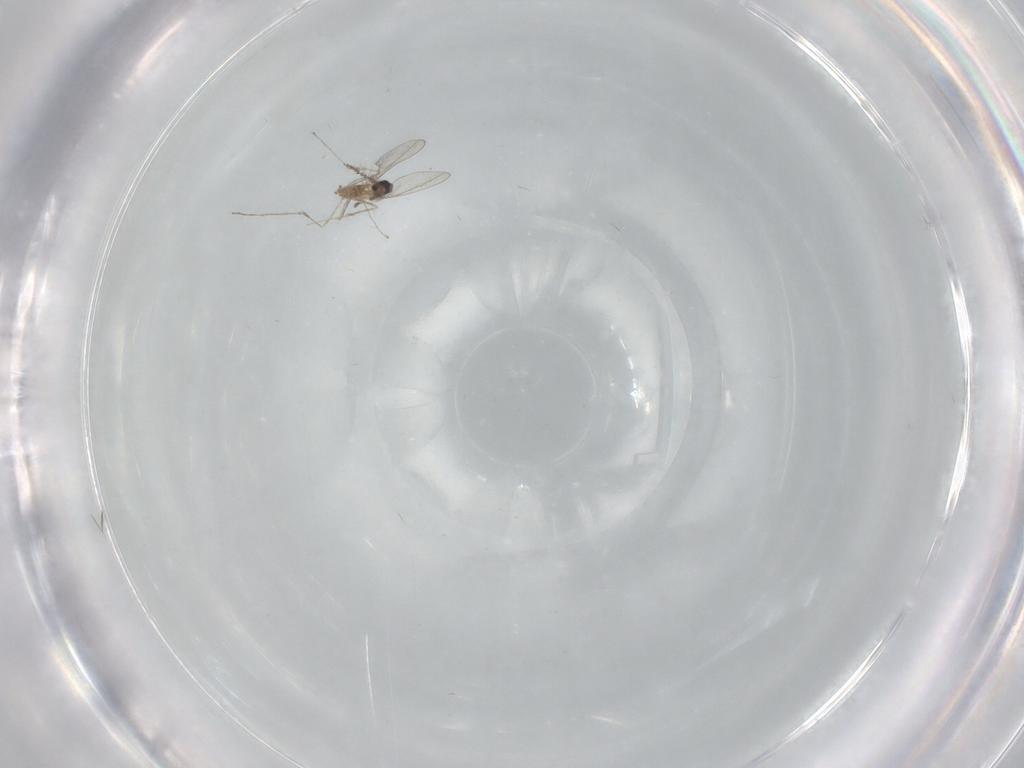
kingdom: Animalia
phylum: Arthropoda
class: Insecta
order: Diptera
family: Cecidomyiidae
